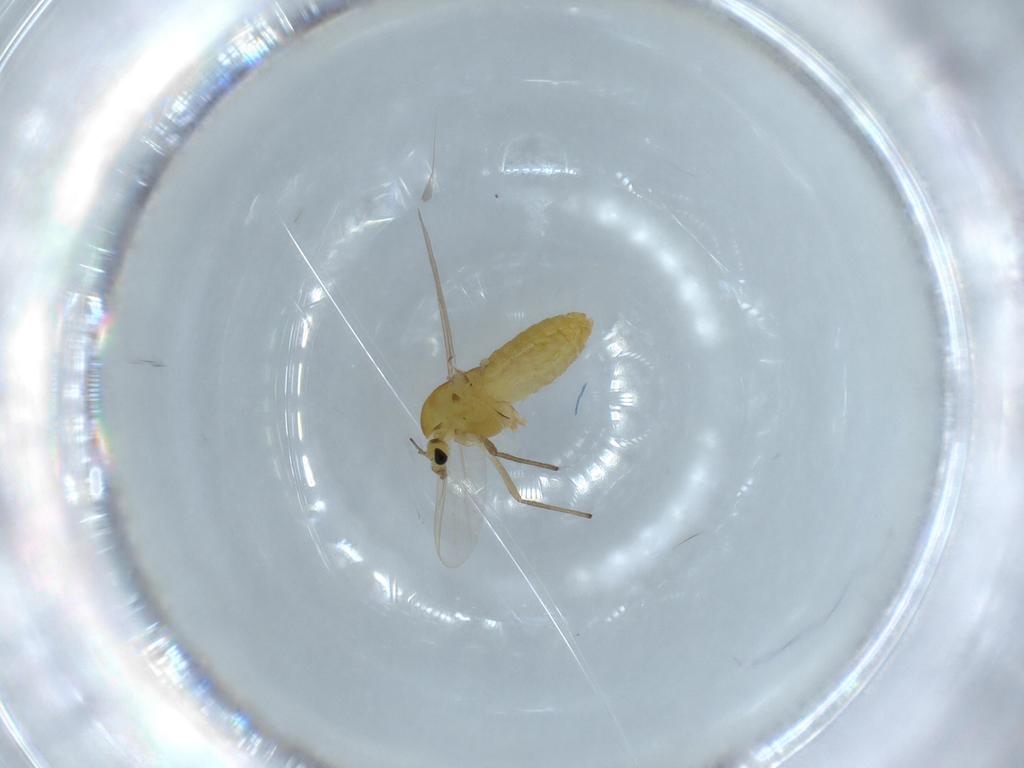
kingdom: Animalia
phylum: Arthropoda
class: Insecta
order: Diptera
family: Chironomidae
